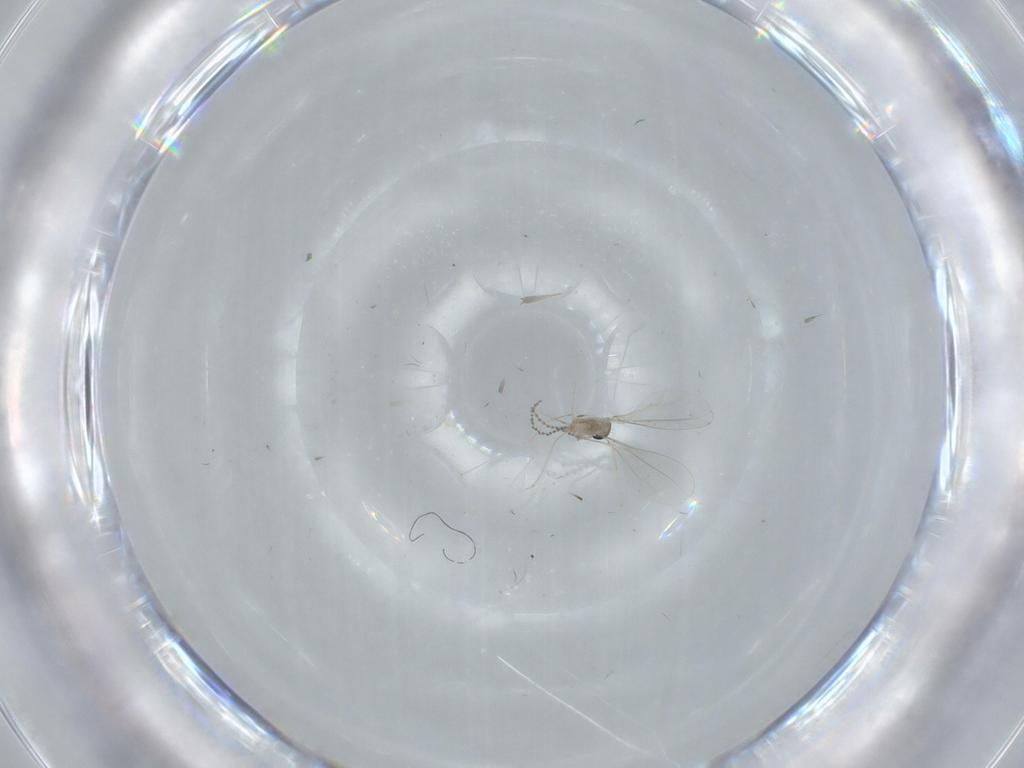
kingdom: Animalia
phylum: Arthropoda
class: Insecta
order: Diptera
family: Cecidomyiidae
